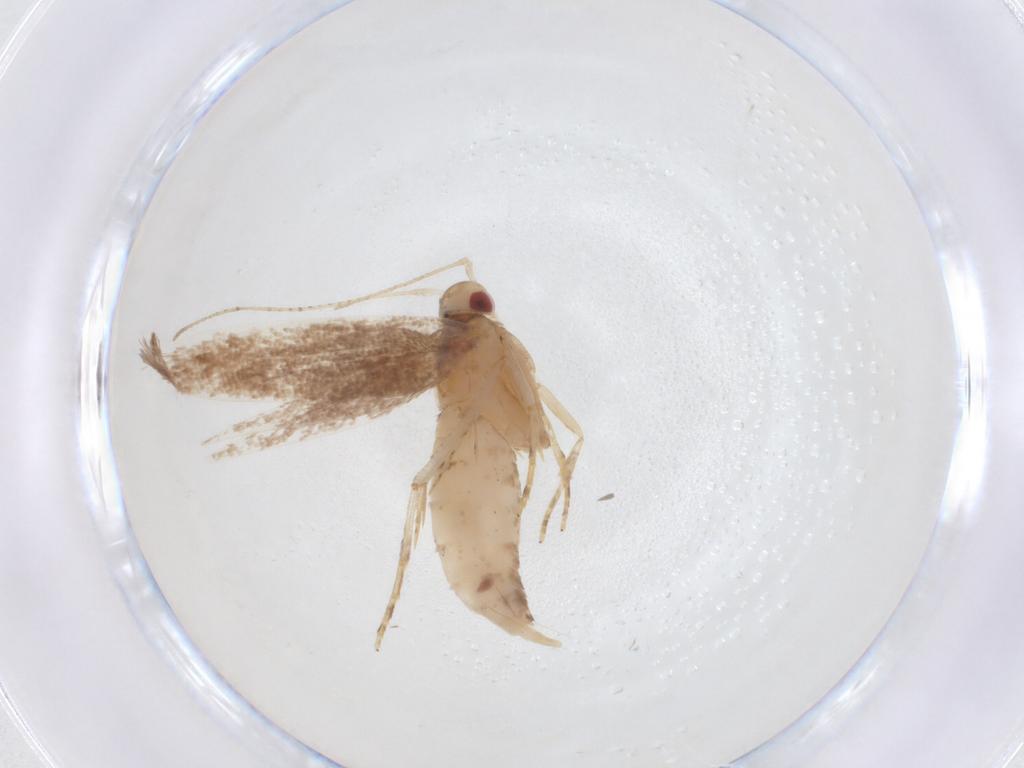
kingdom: Animalia
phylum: Arthropoda
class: Insecta
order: Lepidoptera
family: Cosmopterigidae
